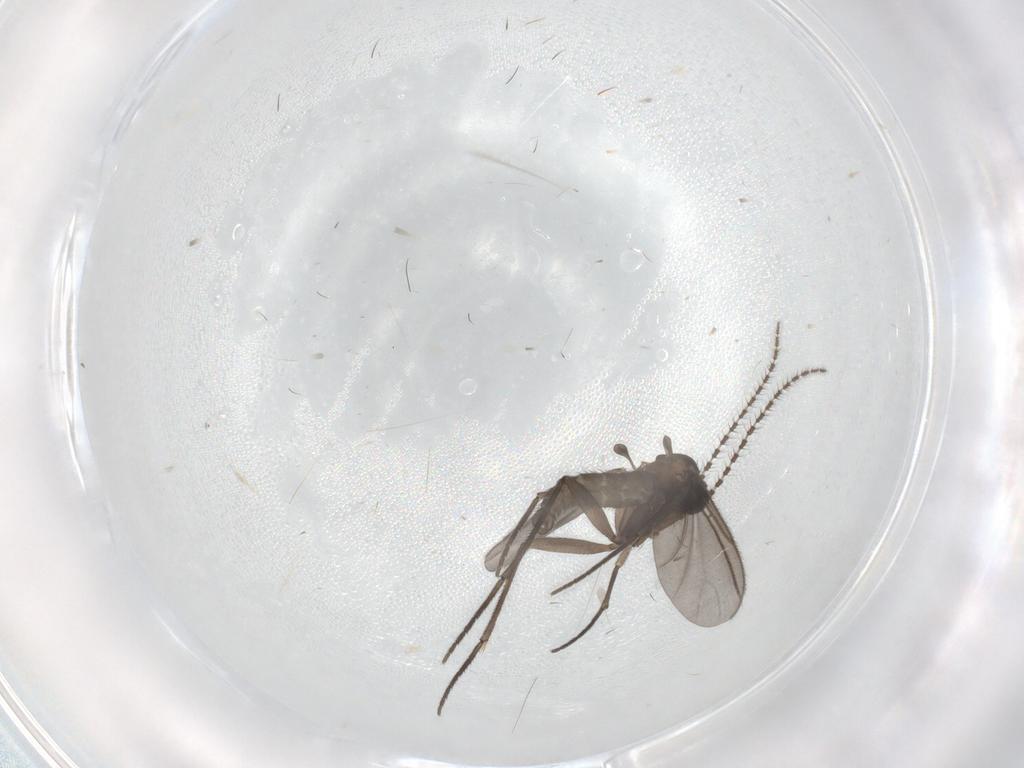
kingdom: Animalia
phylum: Arthropoda
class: Insecta
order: Diptera
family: Sciaridae
